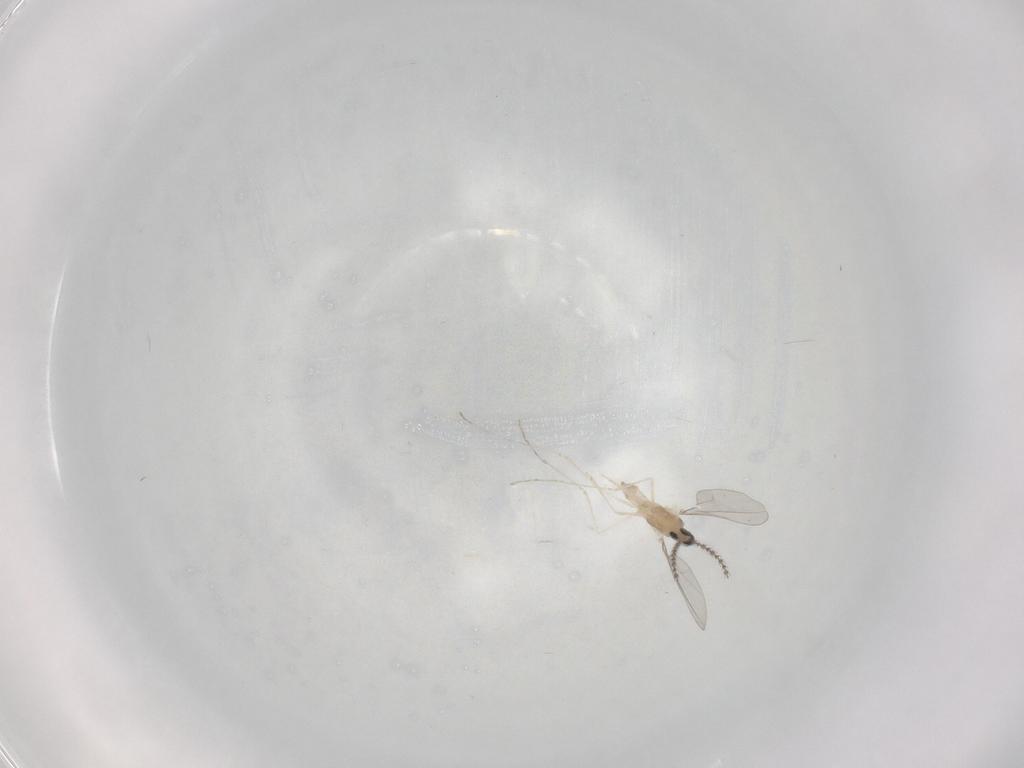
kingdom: Animalia
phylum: Arthropoda
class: Insecta
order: Diptera
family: Cecidomyiidae
